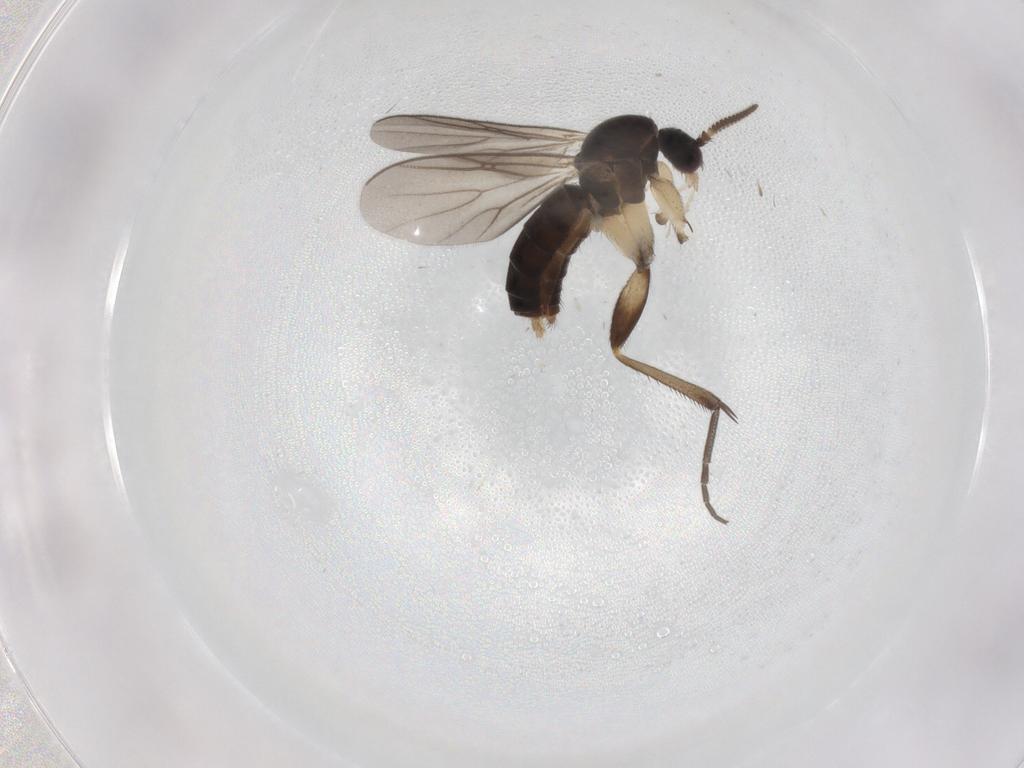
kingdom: Animalia
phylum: Arthropoda
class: Insecta
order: Diptera
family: Mycetophilidae
